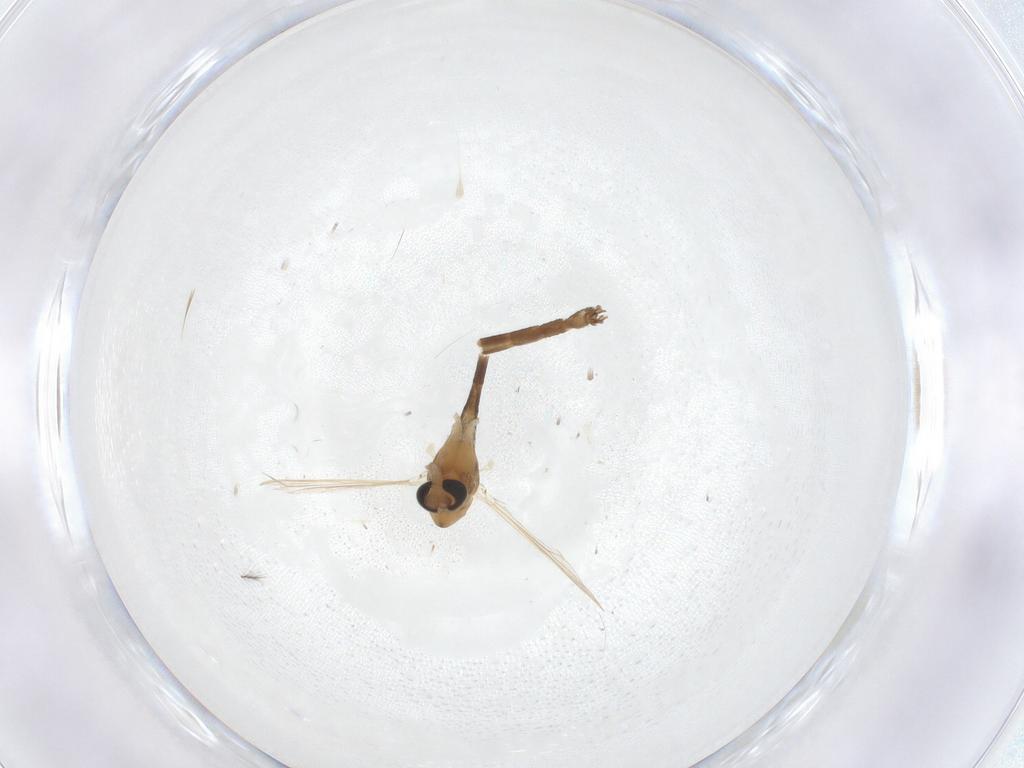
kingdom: Animalia
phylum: Arthropoda
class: Insecta
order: Diptera
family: Chironomidae
